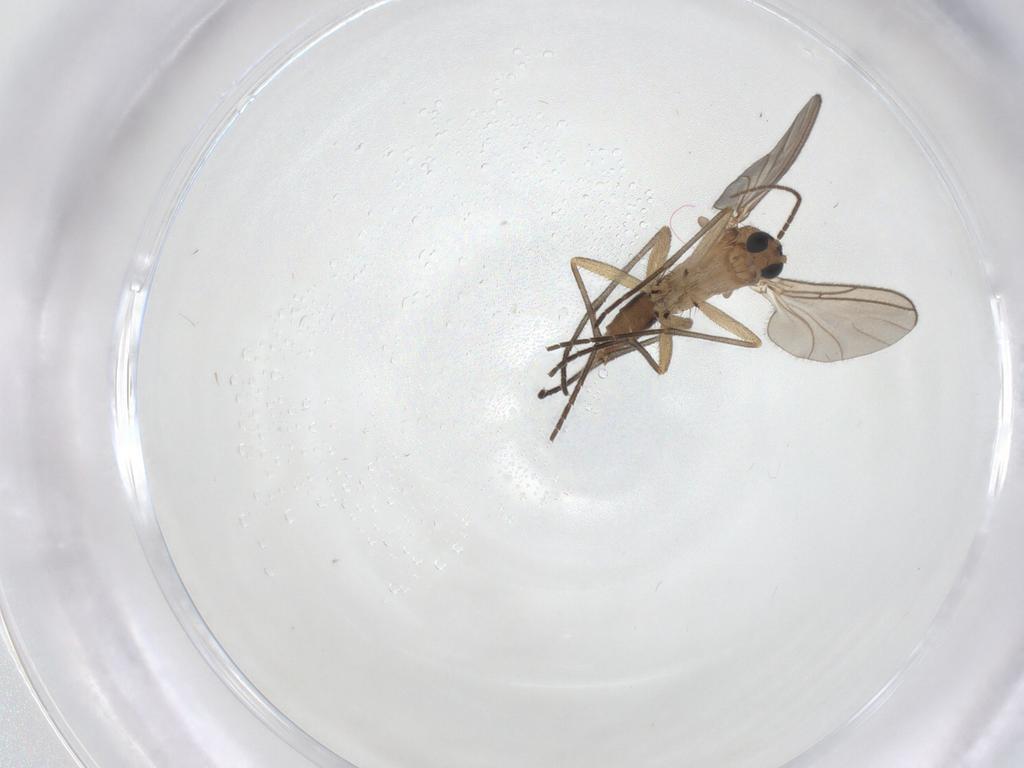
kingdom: Animalia
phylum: Arthropoda
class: Insecta
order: Diptera
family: Sciaridae
